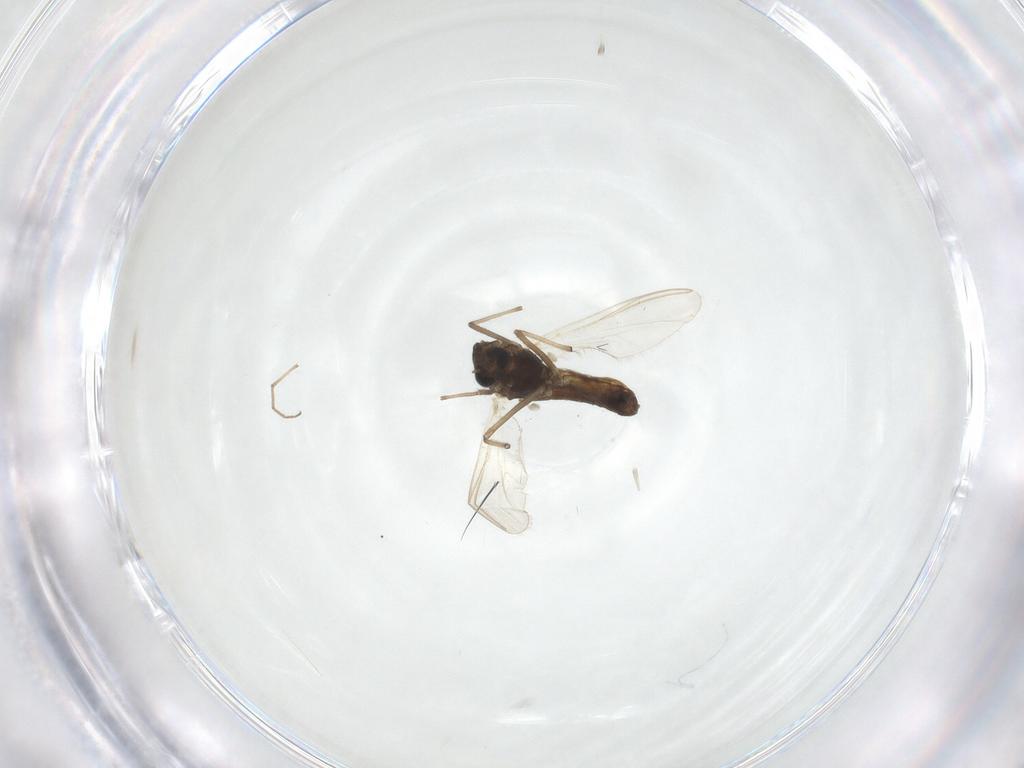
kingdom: Animalia
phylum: Arthropoda
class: Insecta
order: Diptera
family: Chironomidae
